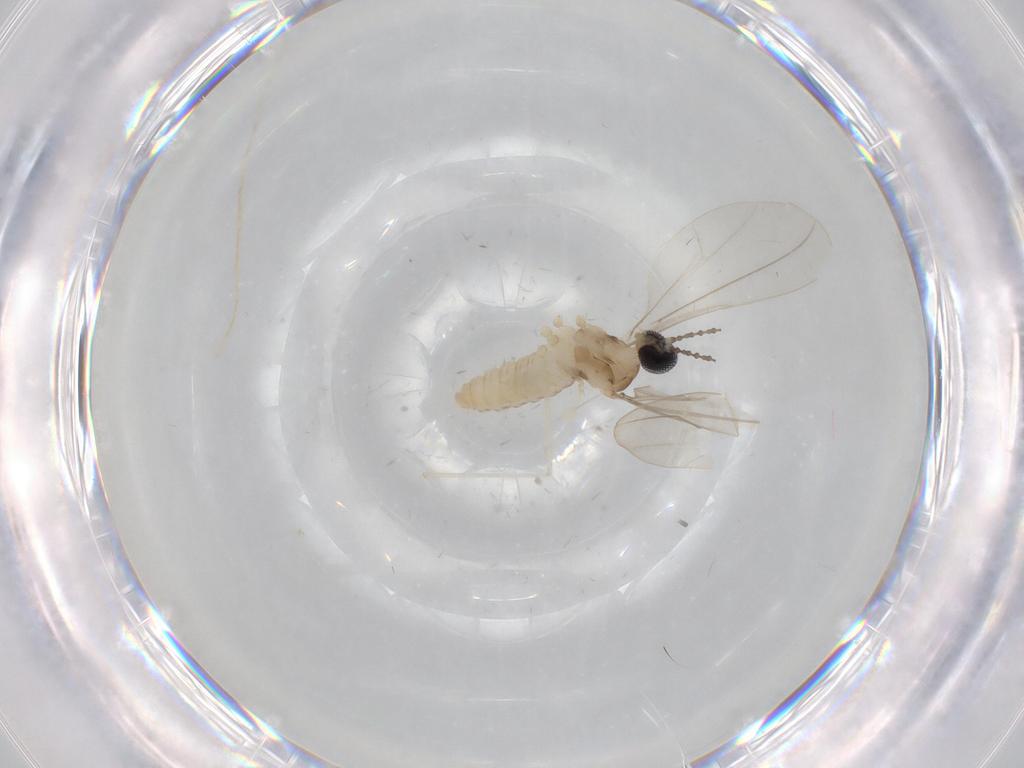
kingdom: Animalia
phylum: Arthropoda
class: Insecta
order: Diptera
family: Cecidomyiidae
